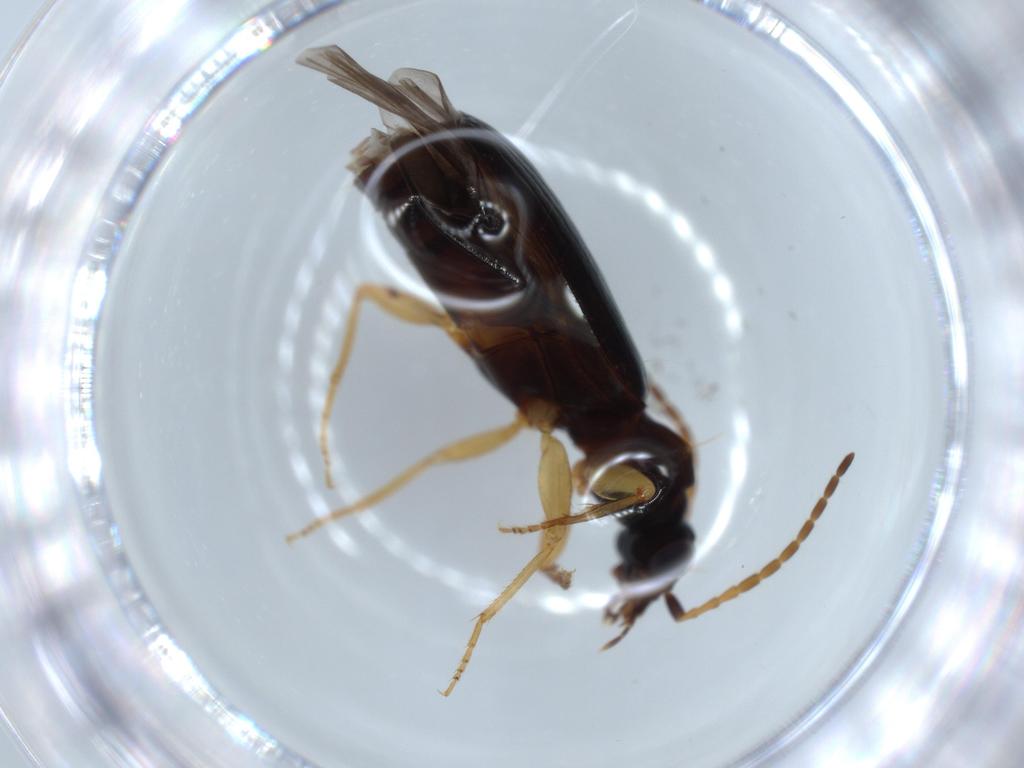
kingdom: Animalia
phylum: Arthropoda
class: Insecta
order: Coleoptera
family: Carabidae
